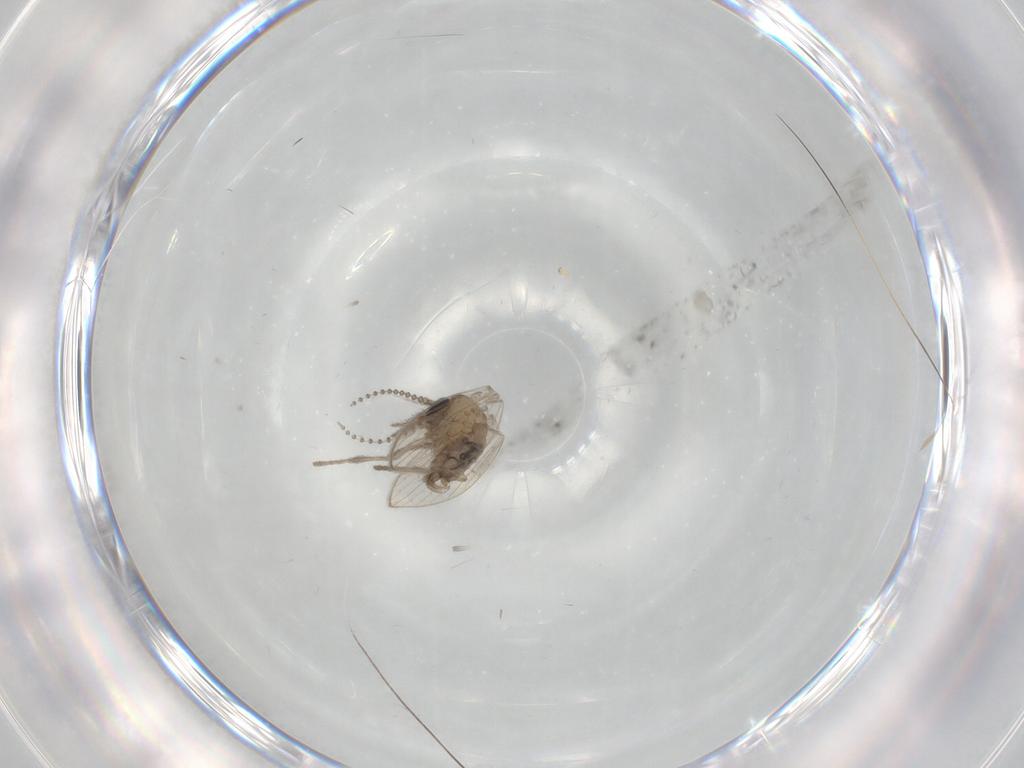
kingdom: Animalia
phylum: Arthropoda
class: Insecta
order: Diptera
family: Psychodidae
